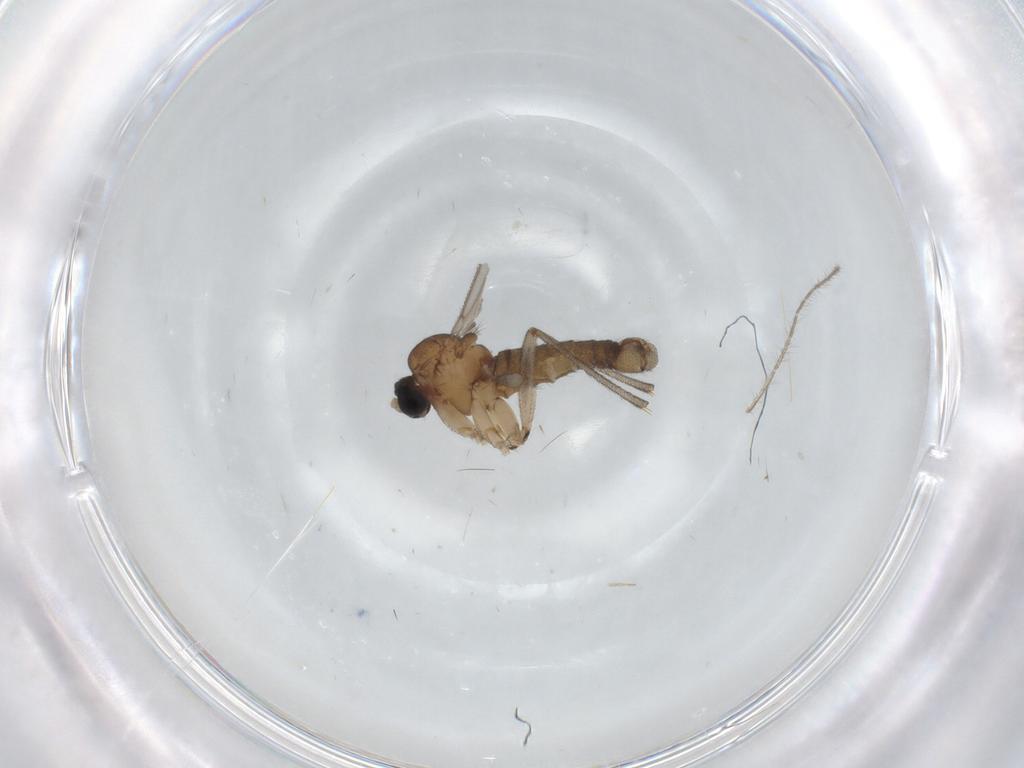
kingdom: Animalia
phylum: Arthropoda
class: Insecta
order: Diptera
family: Sciaridae
